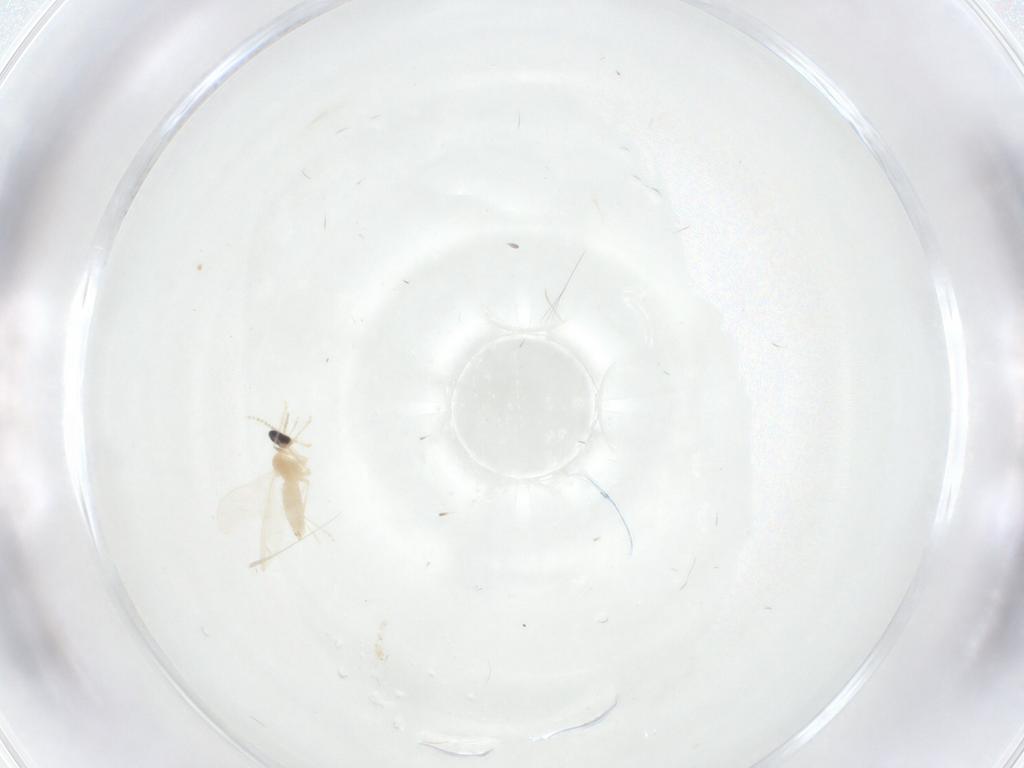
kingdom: Animalia
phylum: Arthropoda
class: Insecta
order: Diptera
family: Cecidomyiidae
